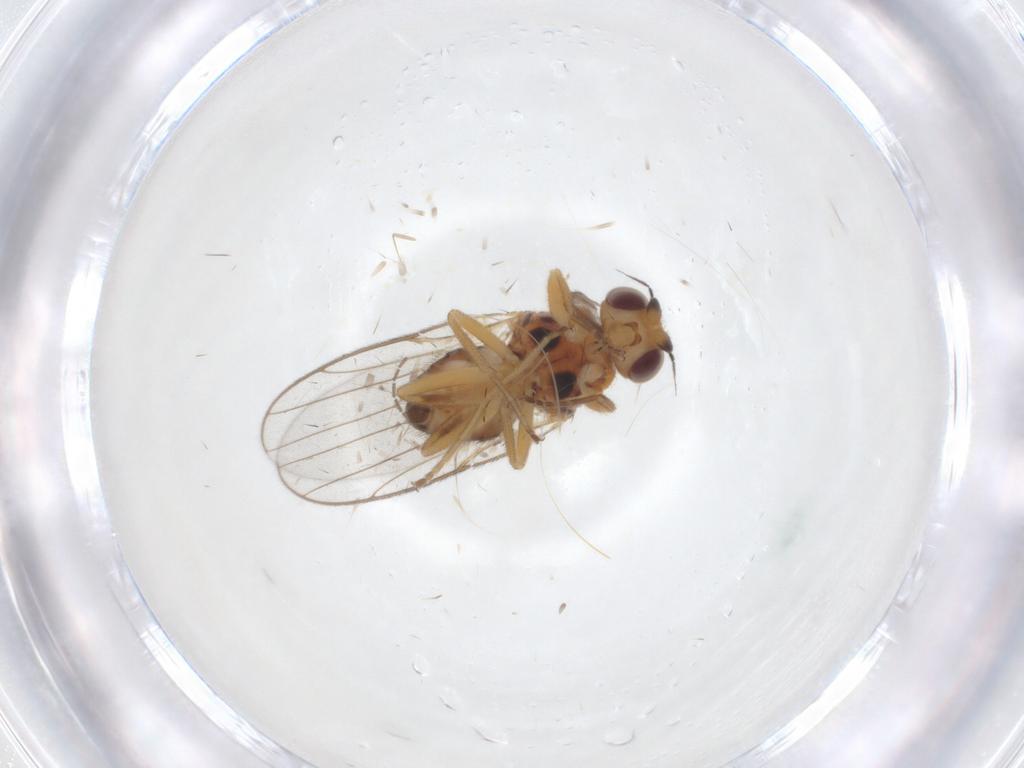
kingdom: Animalia
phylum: Arthropoda
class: Insecta
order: Diptera
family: Chloropidae
